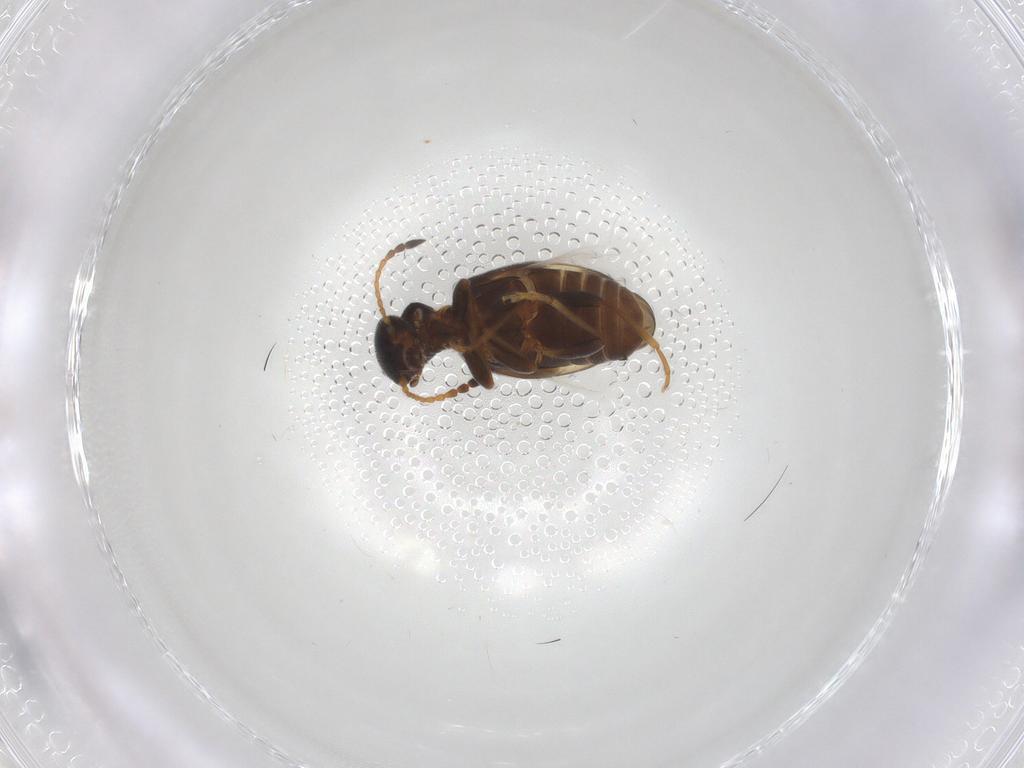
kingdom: Animalia
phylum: Arthropoda
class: Insecta
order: Coleoptera
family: Anthicidae
